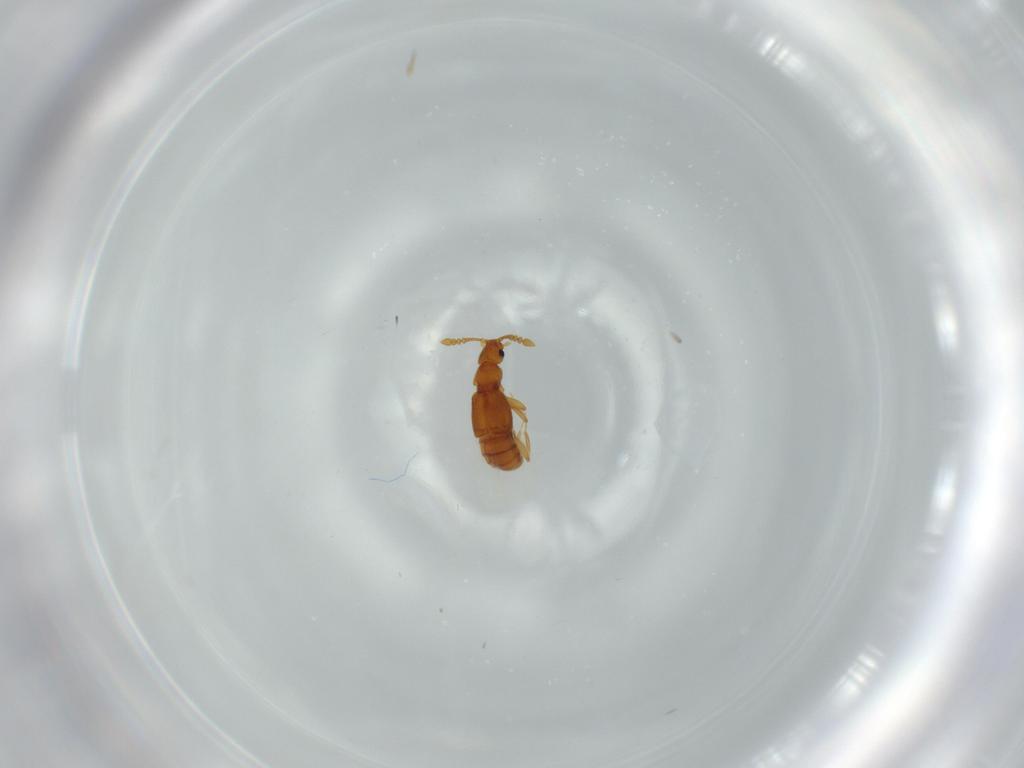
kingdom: Animalia
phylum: Arthropoda
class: Insecta
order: Coleoptera
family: Staphylinidae
